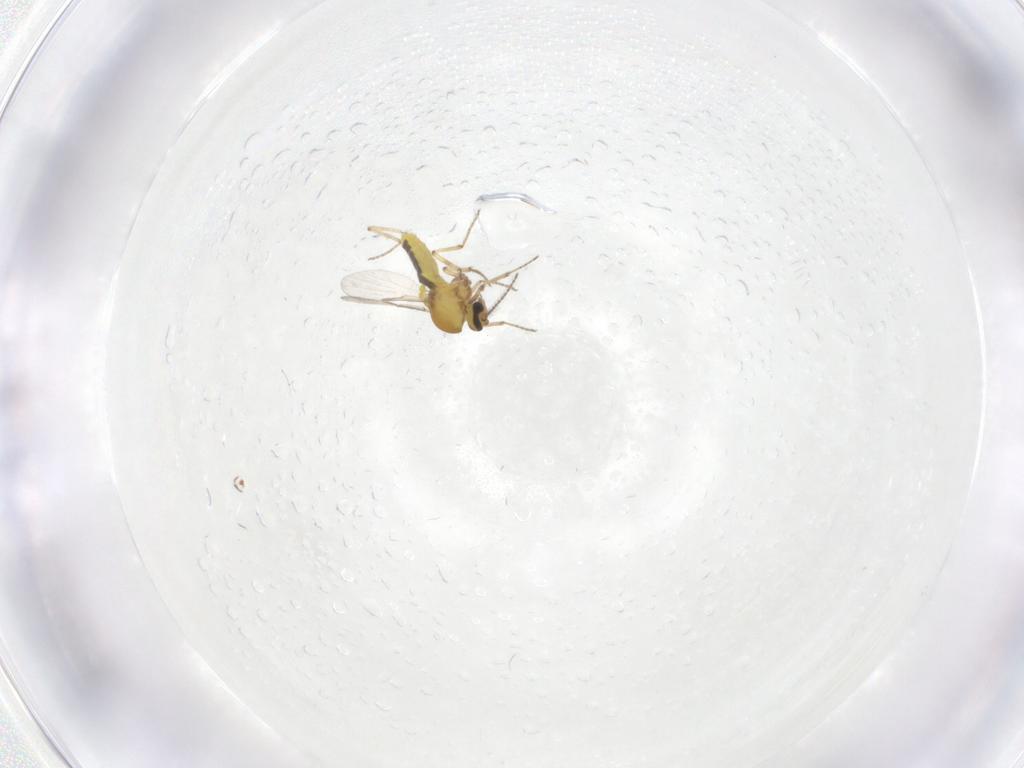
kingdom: Animalia
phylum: Arthropoda
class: Insecta
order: Diptera
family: Ceratopogonidae
